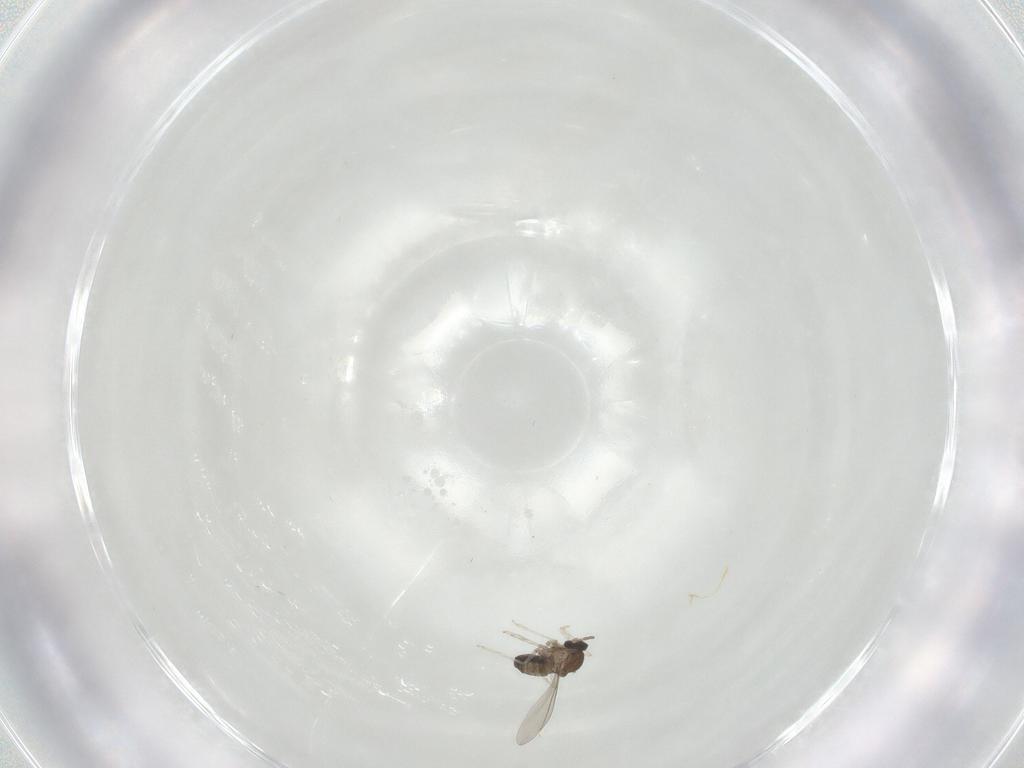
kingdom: Animalia
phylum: Arthropoda
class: Insecta
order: Diptera
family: Cecidomyiidae
